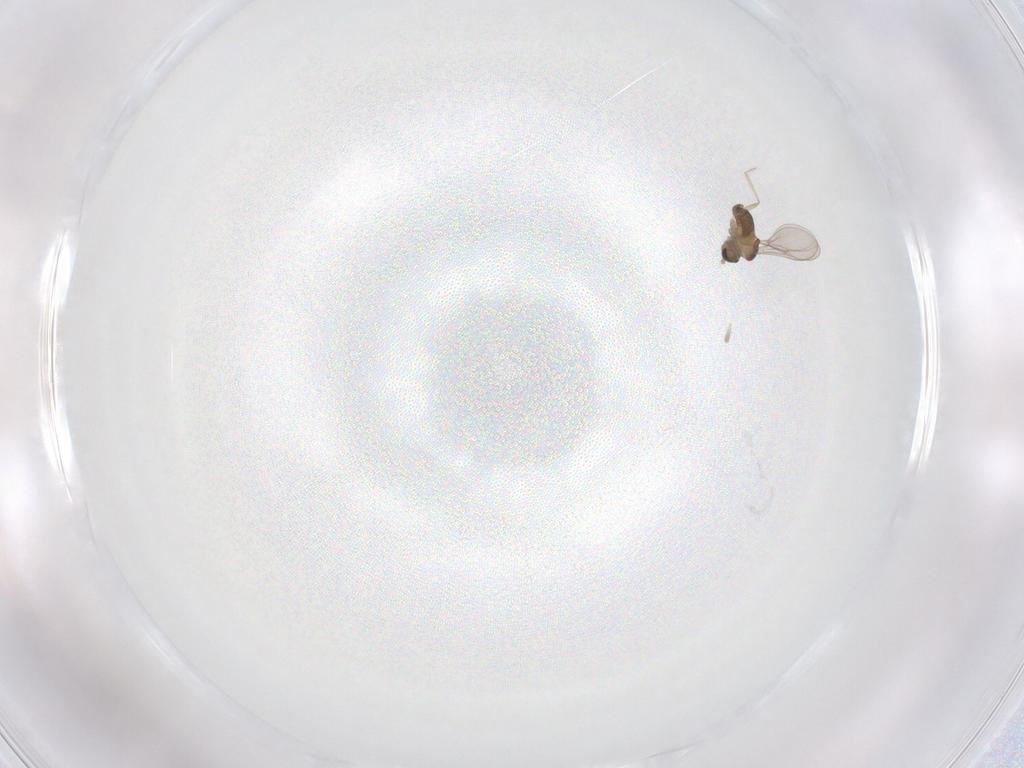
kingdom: Animalia
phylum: Arthropoda
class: Insecta
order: Diptera
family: Cecidomyiidae
